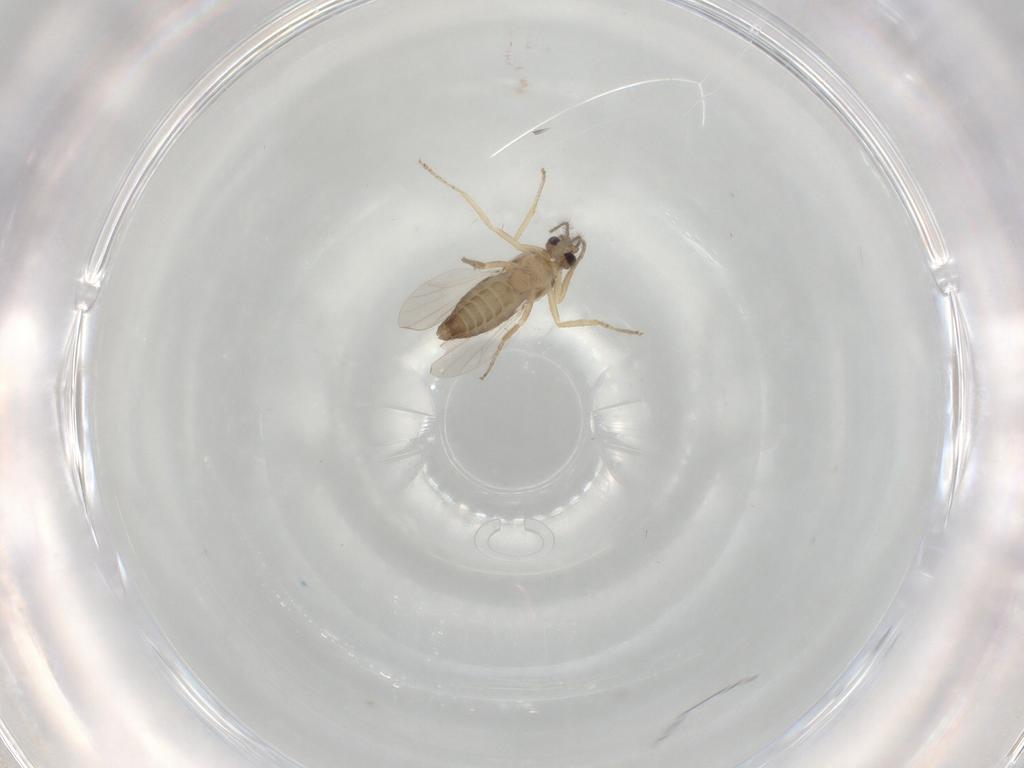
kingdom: Animalia
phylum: Arthropoda
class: Insecta
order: Diptera
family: Ceratopogonidae
